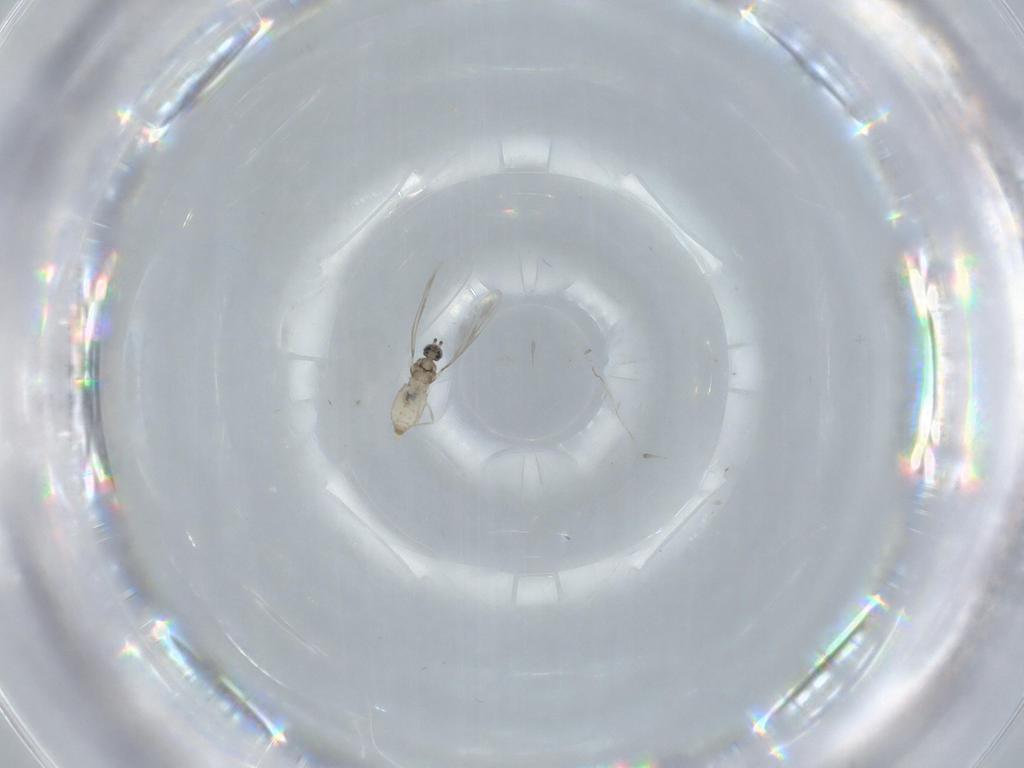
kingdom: Animalia
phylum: Arthropoda
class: Insecta
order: Diptera
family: Cecidomyiidae
